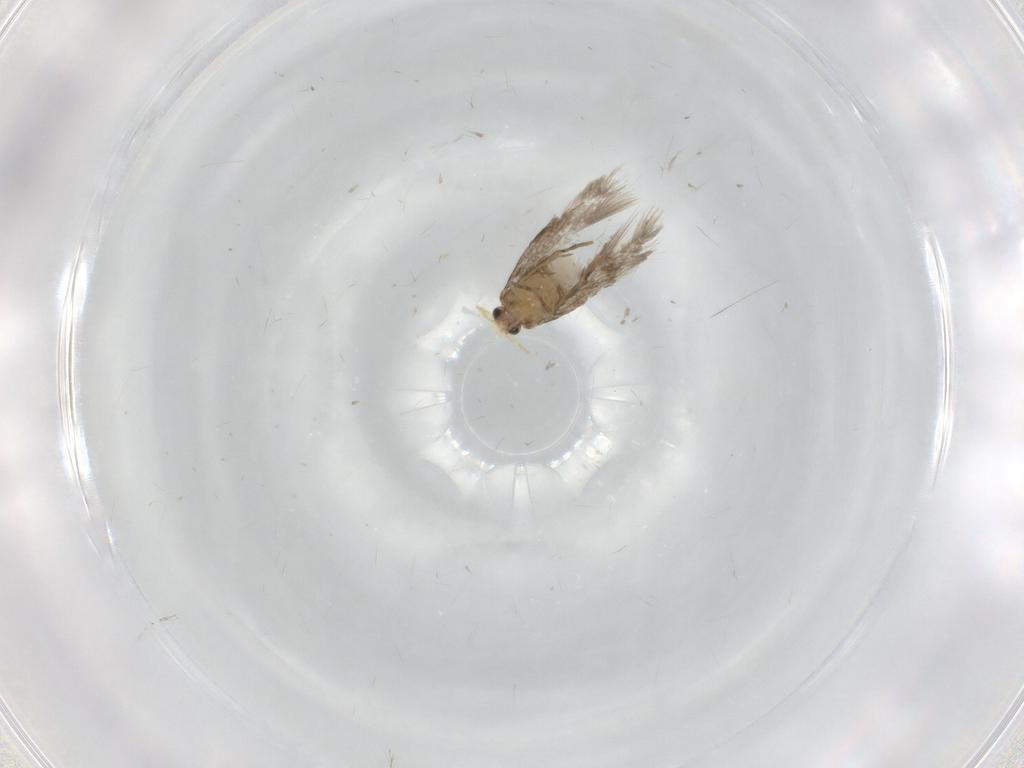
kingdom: Animalia
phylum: Arthropoda
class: Insecta
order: Lepidoptera
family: Nepticulidae
